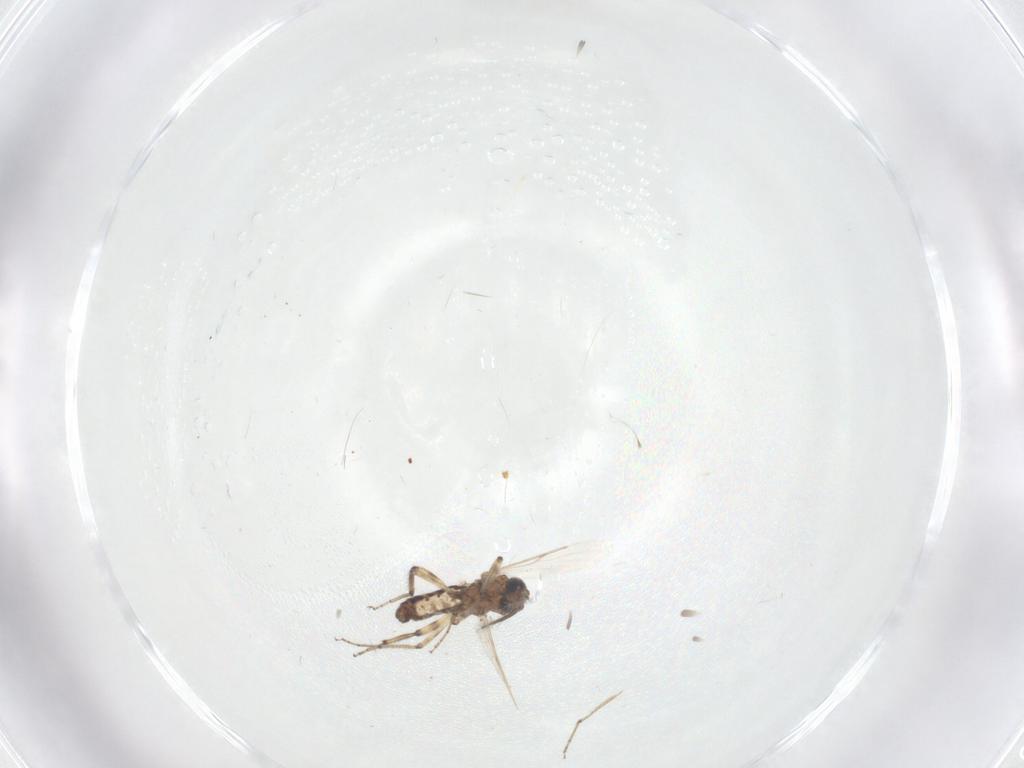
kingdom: Animalia
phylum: Arthropoda
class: Insecta
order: Diptera
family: Ceratopogonidae
